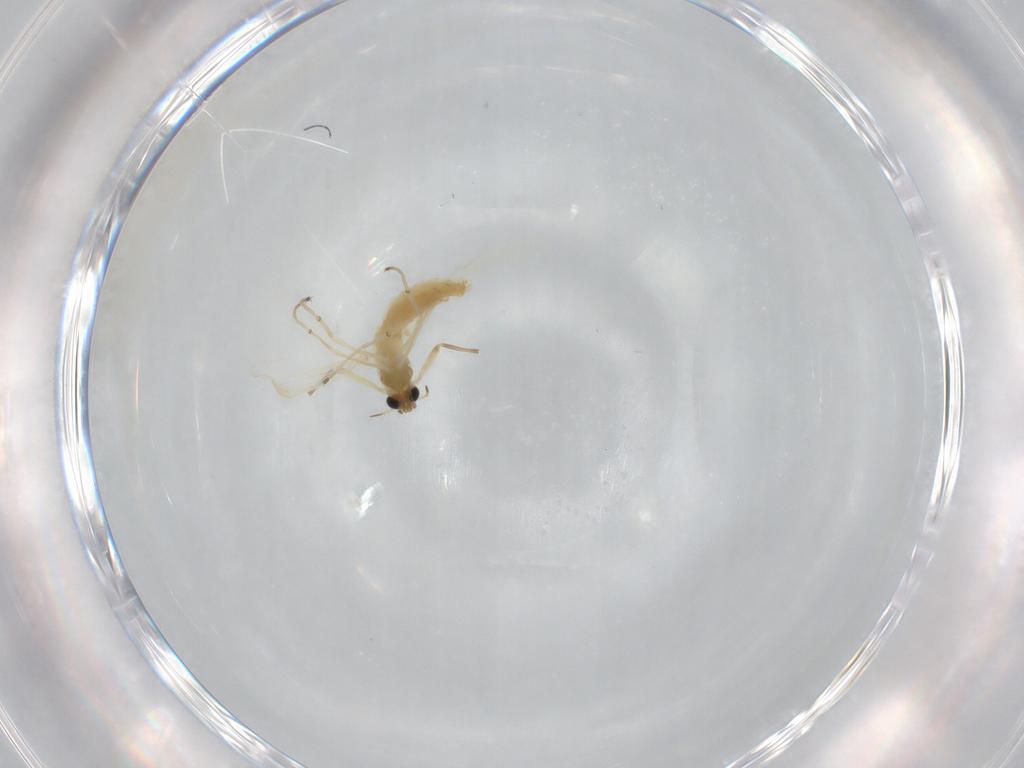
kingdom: Animalia
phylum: Arthropoda
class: Insecta
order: Diptera
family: Chironomidae
